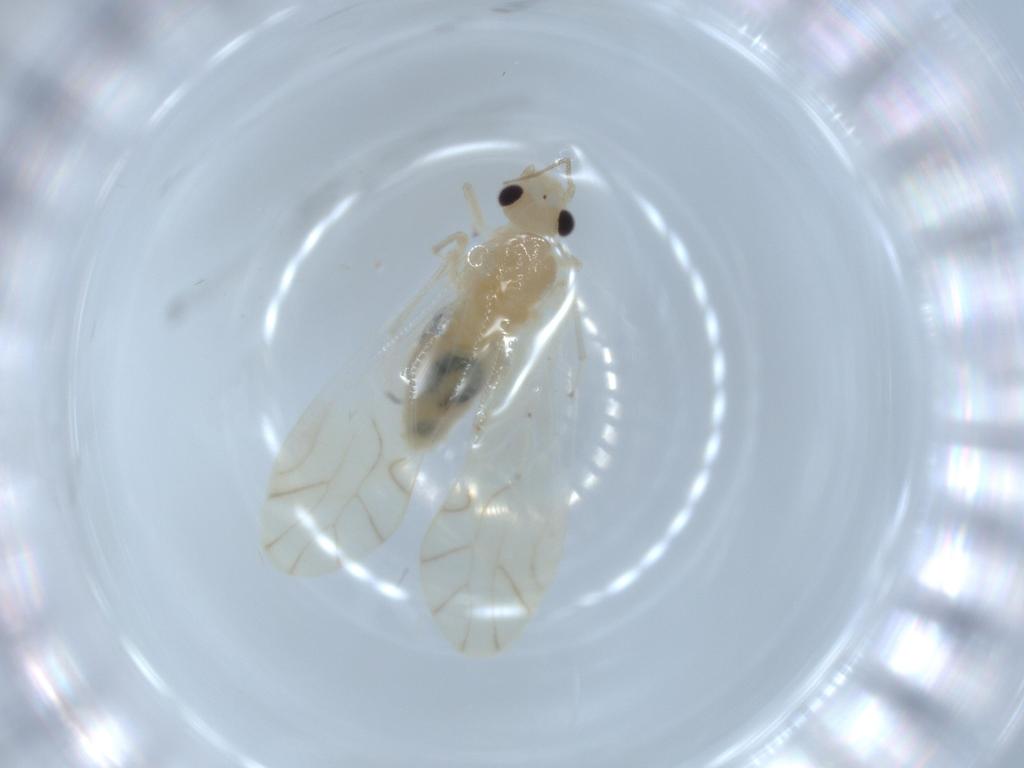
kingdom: Animalia
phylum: Arthropoda
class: Insecta
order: Psocodea
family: Caeciliusidae
